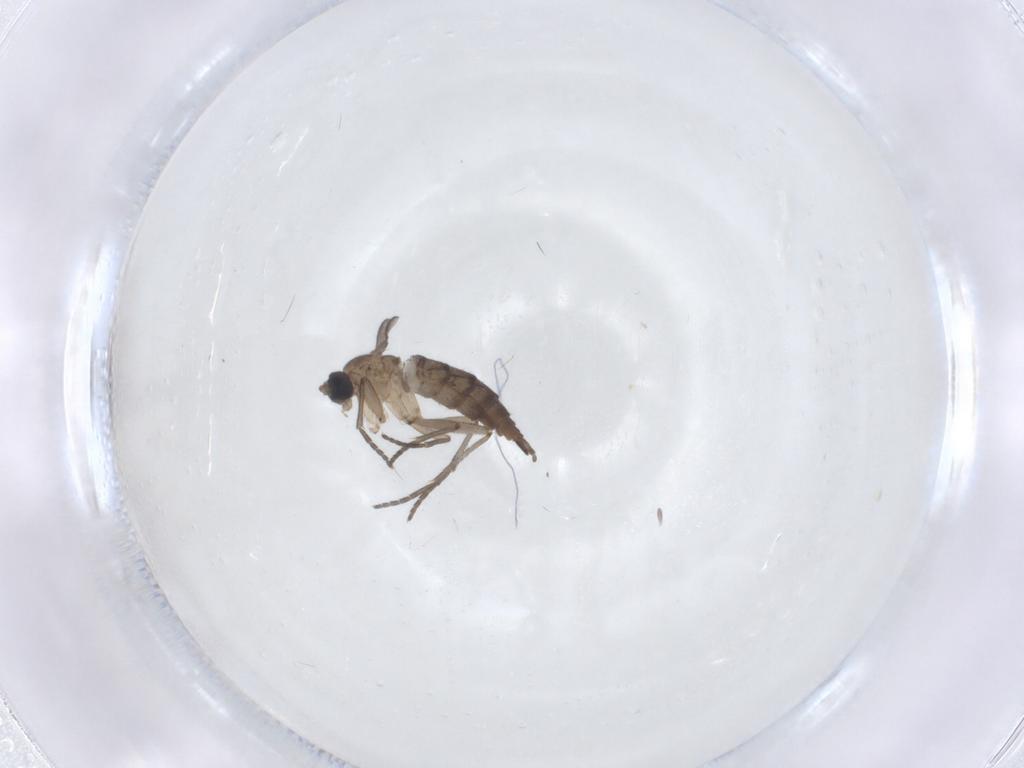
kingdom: Animalia
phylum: Arthropoda
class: Insecta
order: Diptera
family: Sciaridae
